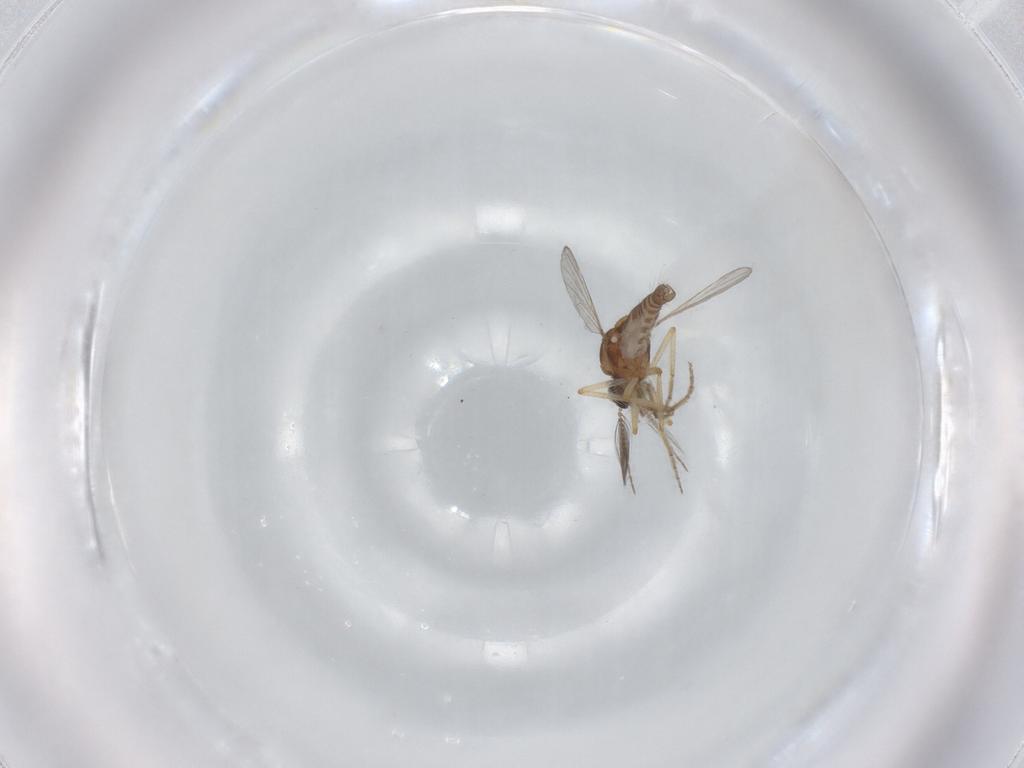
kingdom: Animalia
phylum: Arthropoda
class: Insecta
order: Diptera
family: Ceratopogonidae
